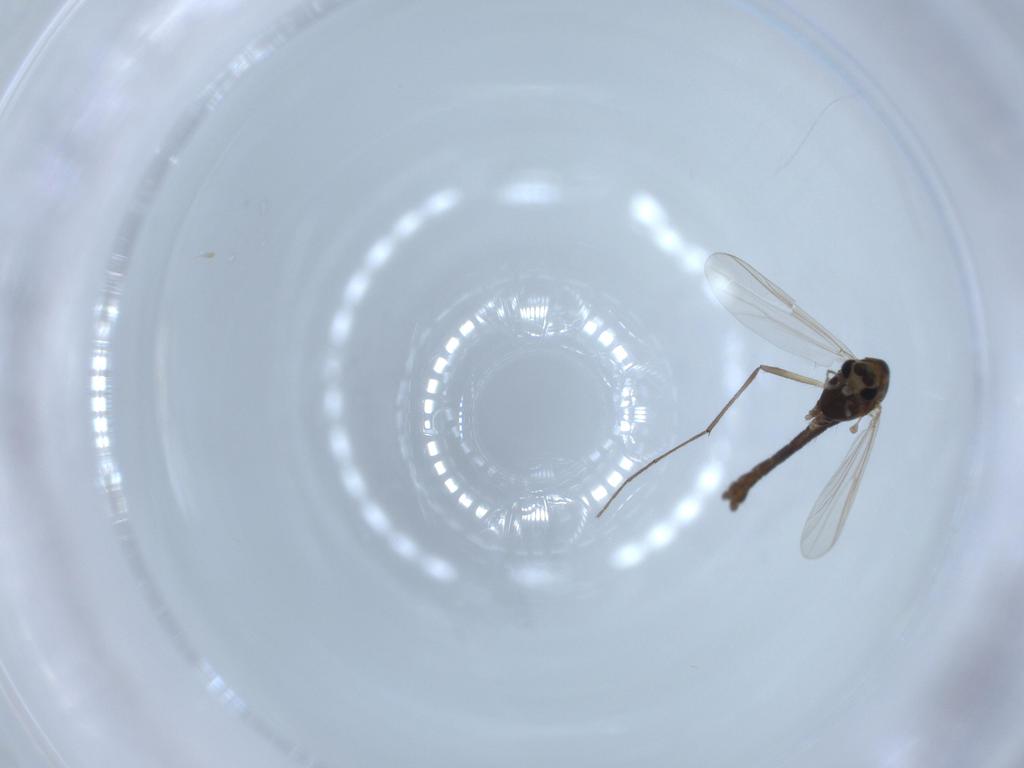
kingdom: Animalia
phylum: Arthropoda
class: Insecta
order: Diptera
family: Chironomidae
